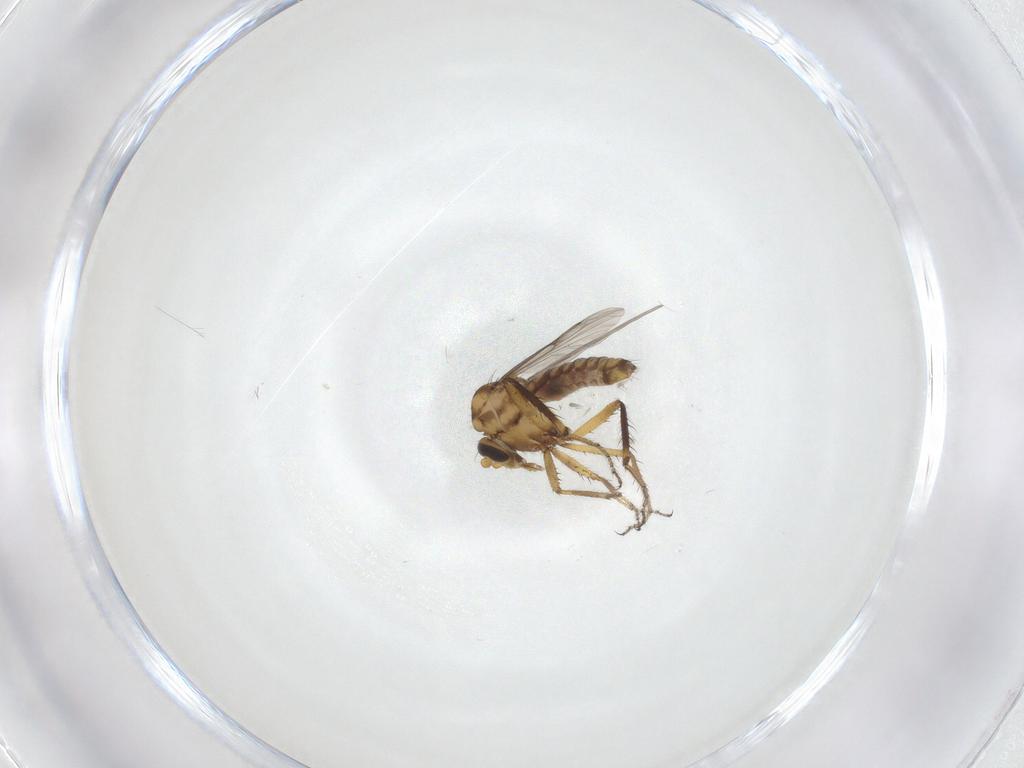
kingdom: Animalia
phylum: Arthropoda
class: Insecta
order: Diptera
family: Ceratopogonidae
